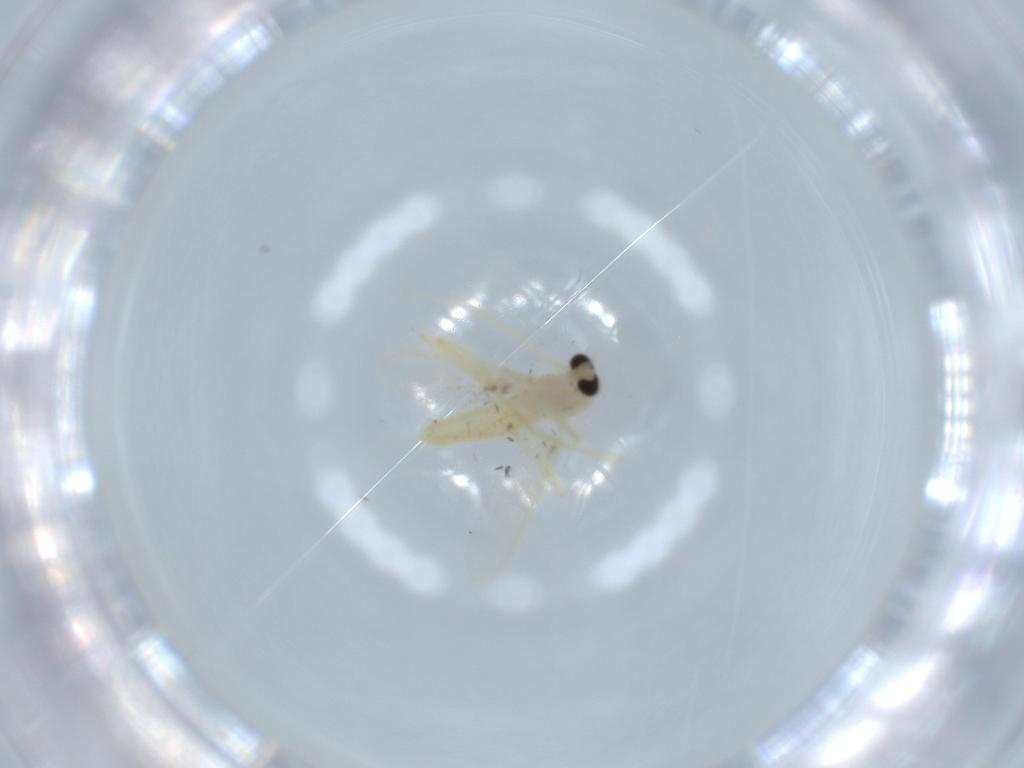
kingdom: Animalia
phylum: Arthropoda
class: Insecta
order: Diptera
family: Chironomidae
